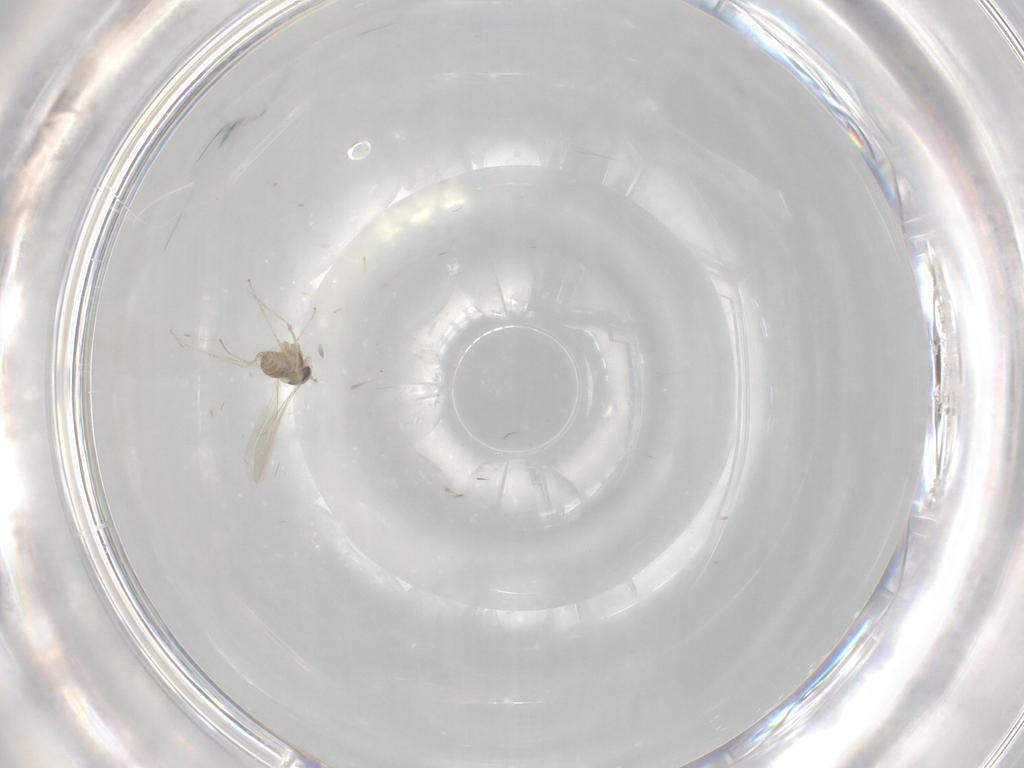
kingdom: Animalia
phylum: Arthropoda
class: Insecta
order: Diptera
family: Cecidomyiidae
